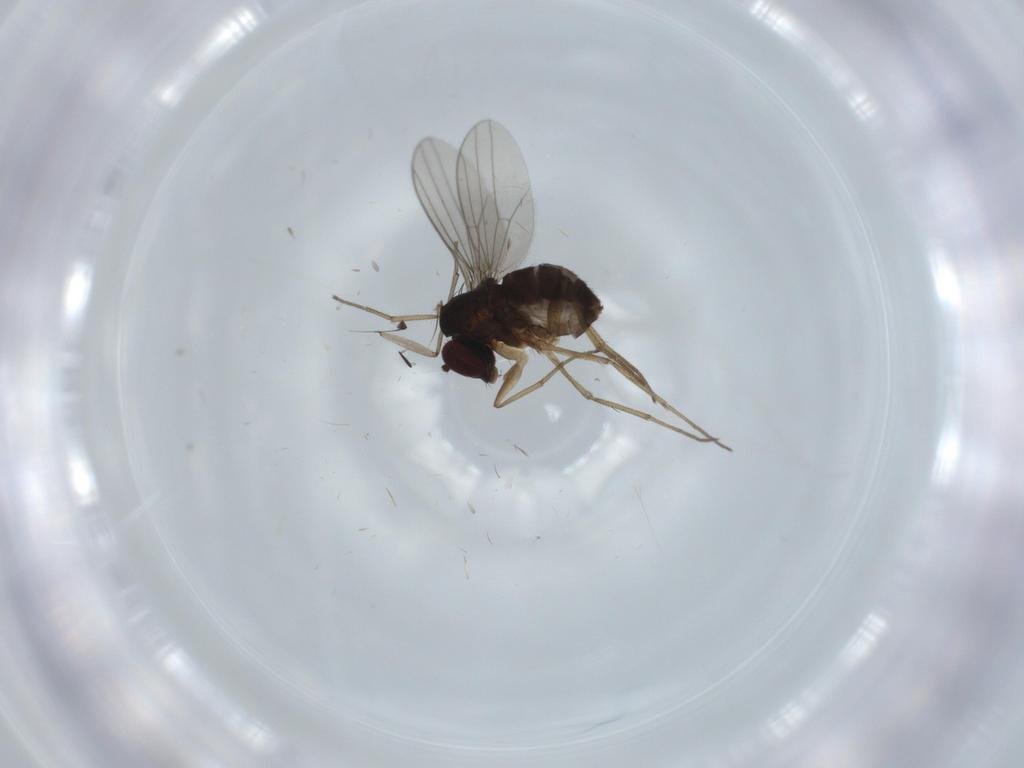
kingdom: Animalia
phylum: Arthropoda
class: Insecta
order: Diptera
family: Dolichopodidae
